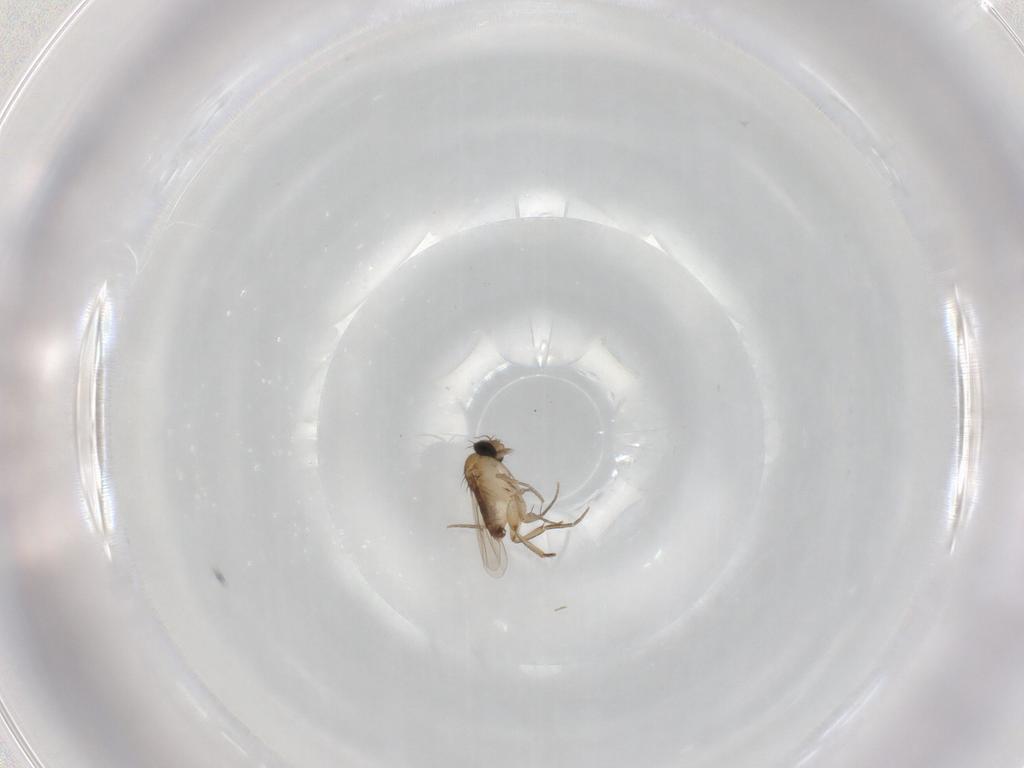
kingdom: Animalia
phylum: Arthropoda
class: Insecta
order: Diptera
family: Phoridae
